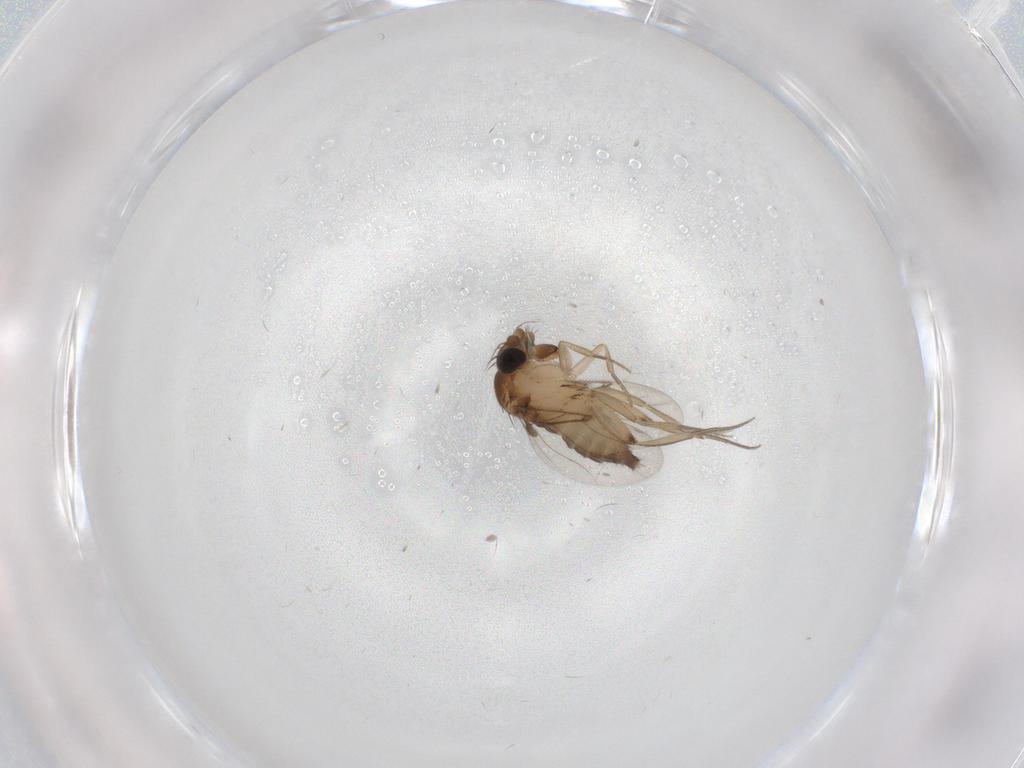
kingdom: Animalia
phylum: Arthropoda
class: Insecta
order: Diptera
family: Phoridae
